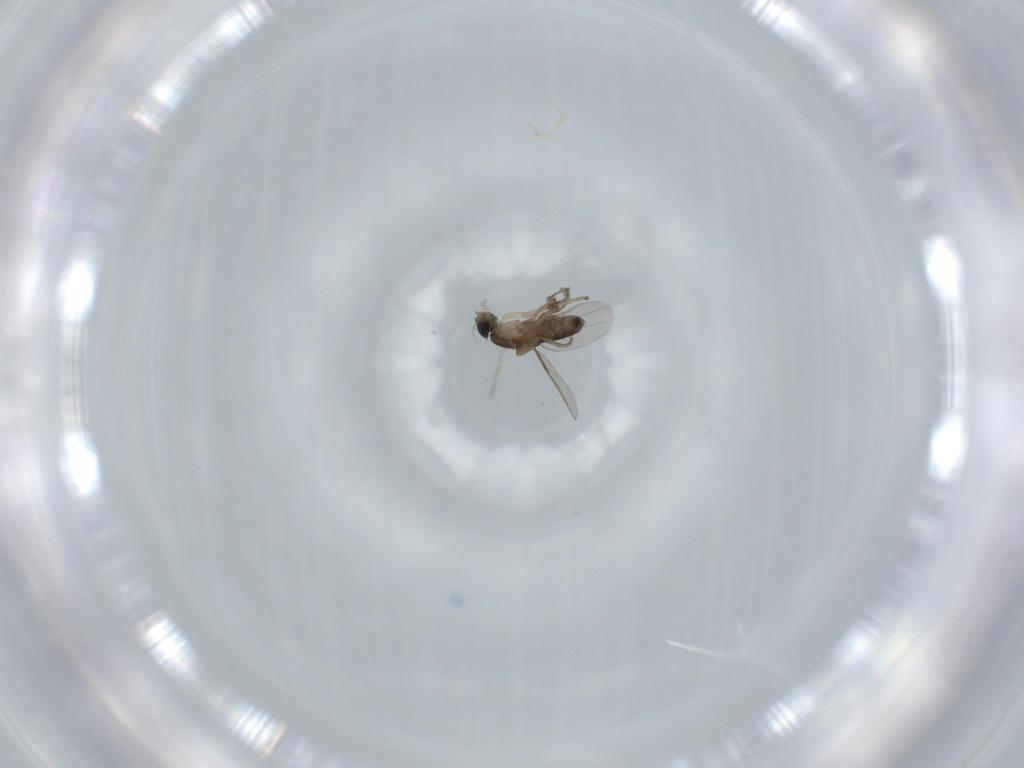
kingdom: Animalia
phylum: Arthropoda
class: Insecta
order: Diptera
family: Phoridae
